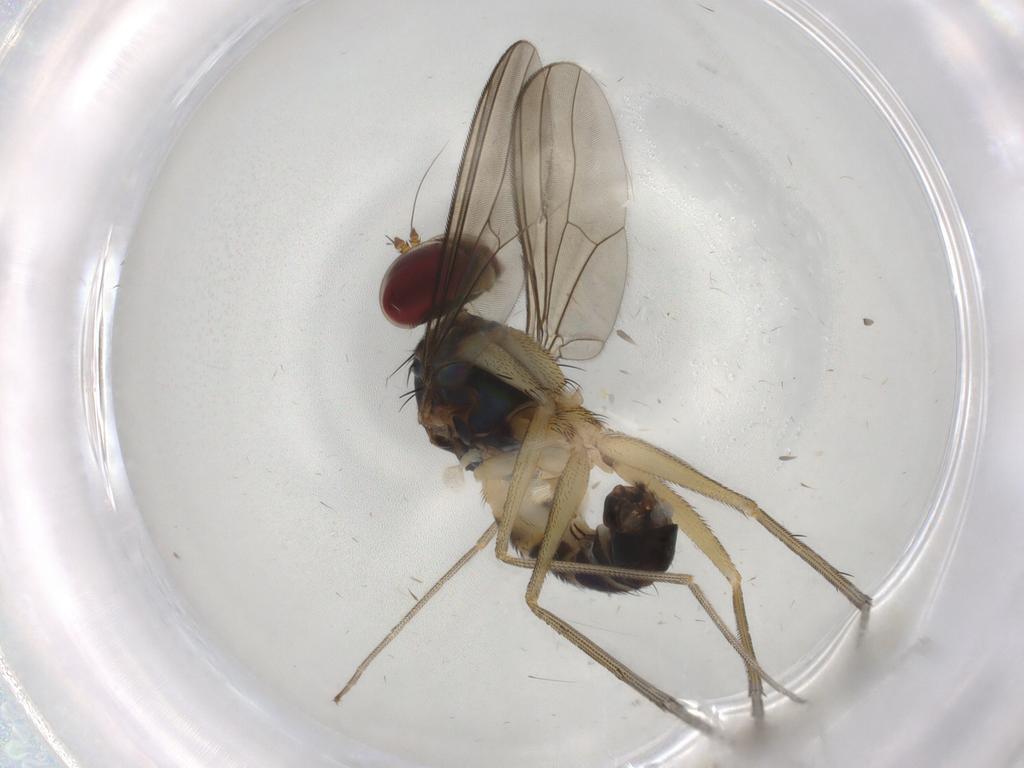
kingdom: Animalia
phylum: Arthropoda
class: Insecta
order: Diptera
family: Dolichopodidae
